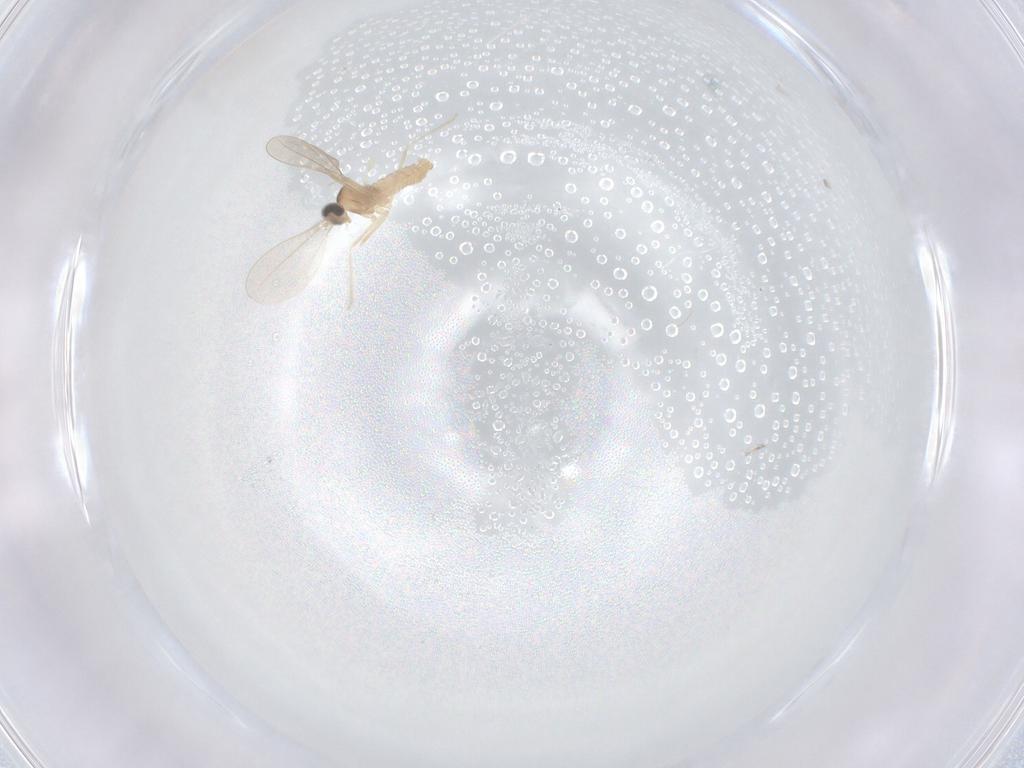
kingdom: Animalia
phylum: Arthropoda
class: Insecta
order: Diptera
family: Cecidomyiidae
